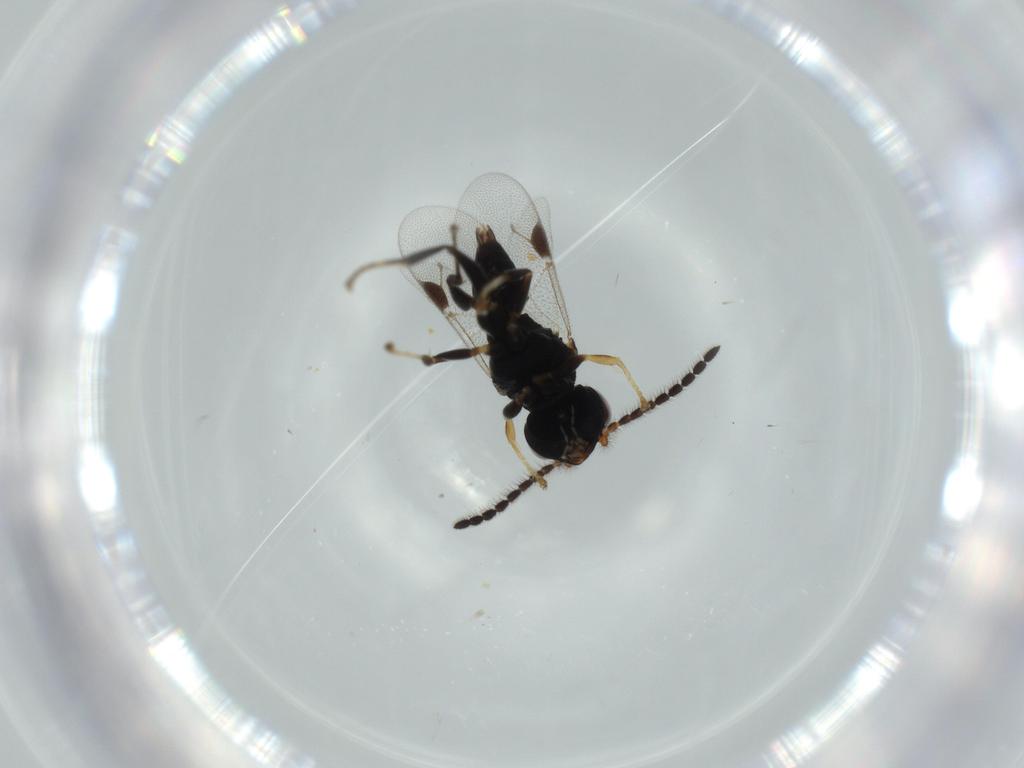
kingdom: Animalia
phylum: Arthropoda
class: Insecta
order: Hymenoptera
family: Dryinidae
